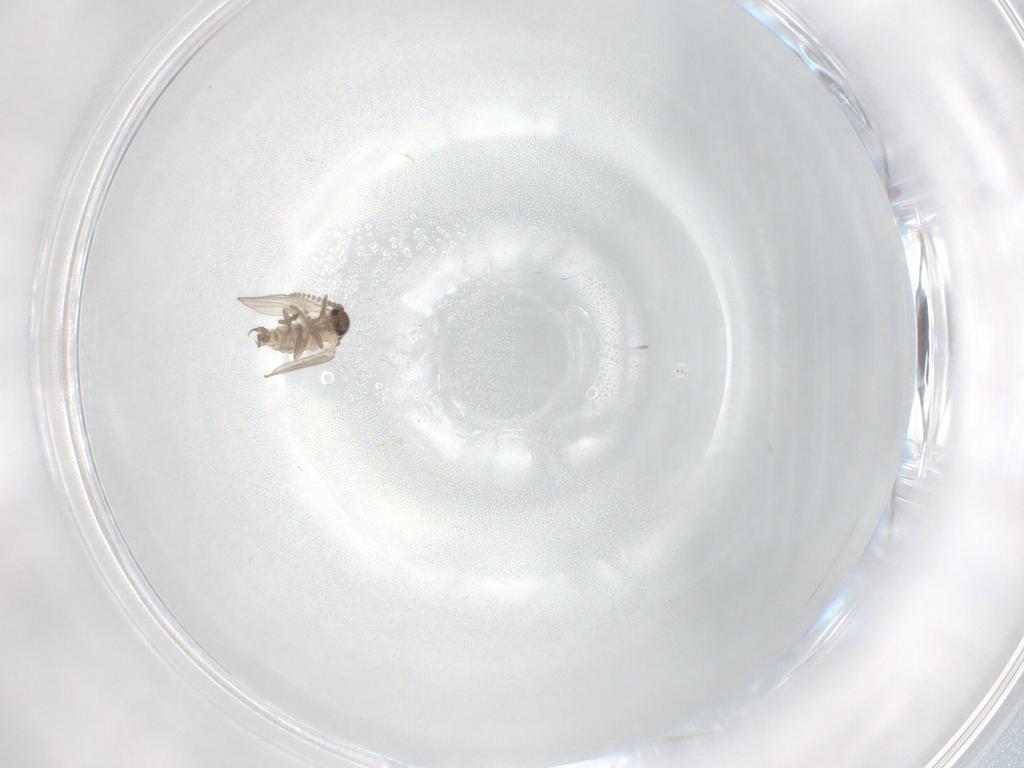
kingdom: Animalia
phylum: Arthropoda
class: Insecta
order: Diptera
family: Psychodidae
